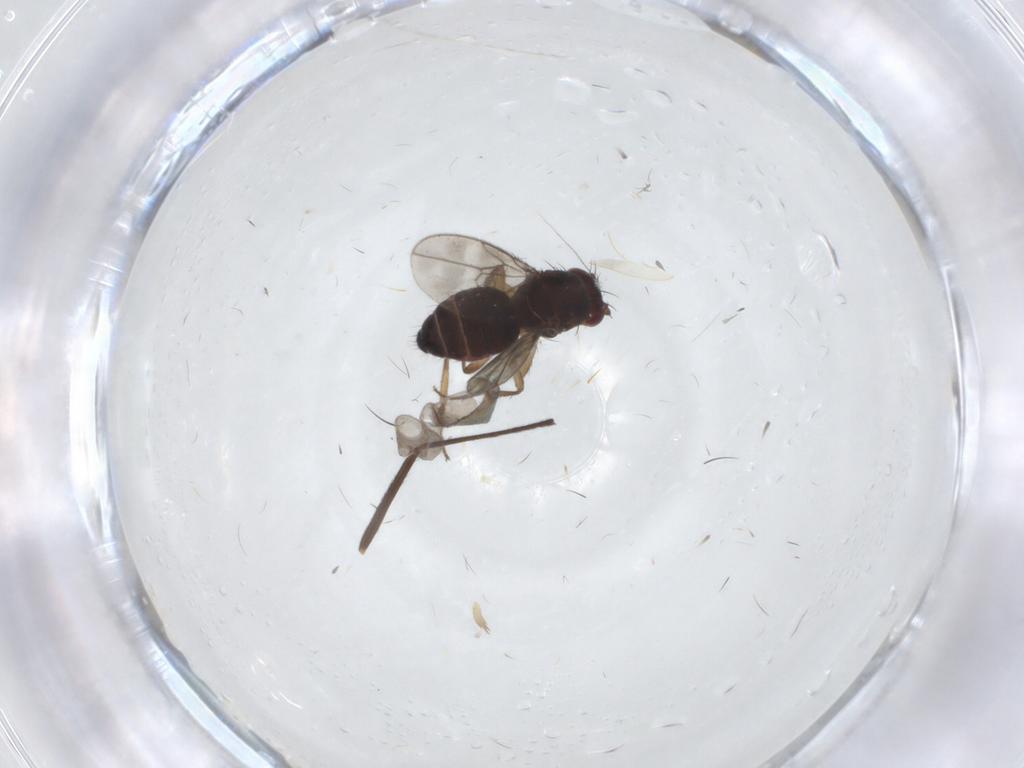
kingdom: Animalia
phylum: Arthropoda
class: Insecta
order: Diptera
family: Sphaeroceridae
